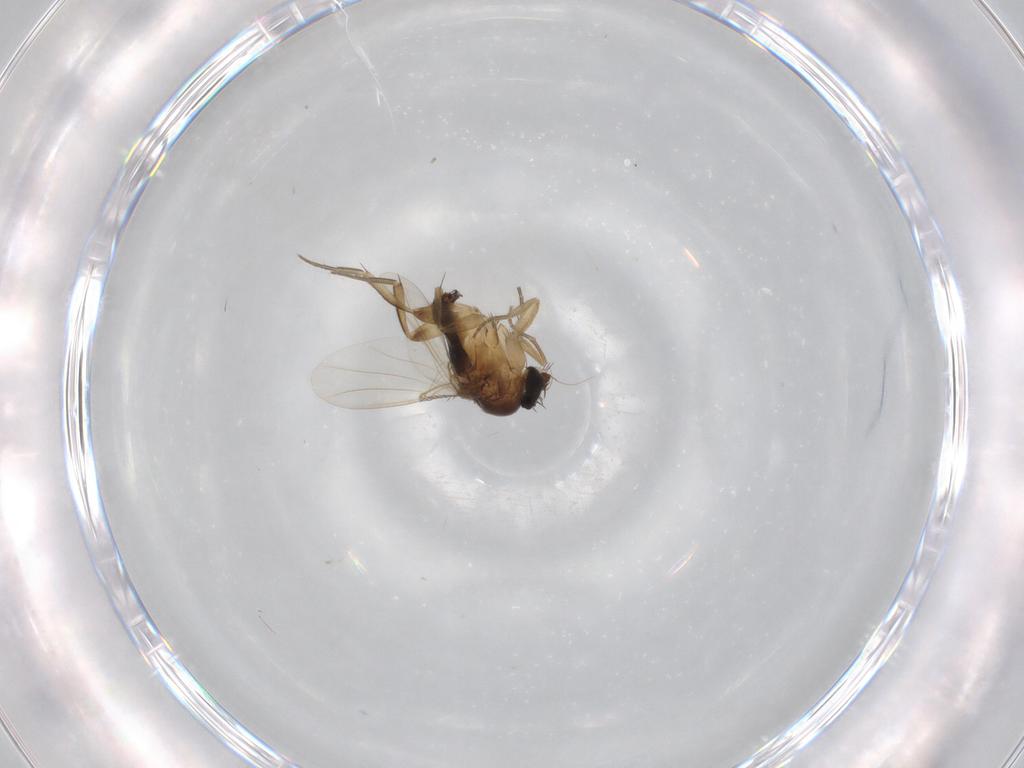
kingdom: Animalia
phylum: Arthropoda
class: Insecta
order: Diptera
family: Phoridae
